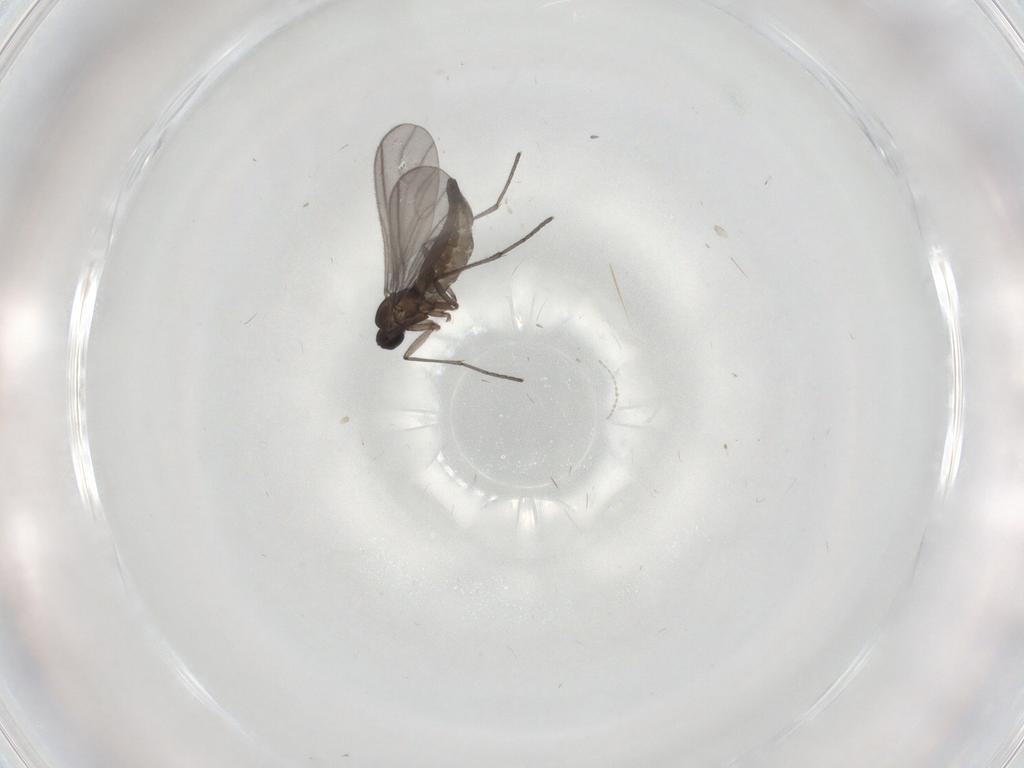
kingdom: Animalia
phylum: Arthropoda
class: Insecta
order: Diptera
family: Sciaridae
